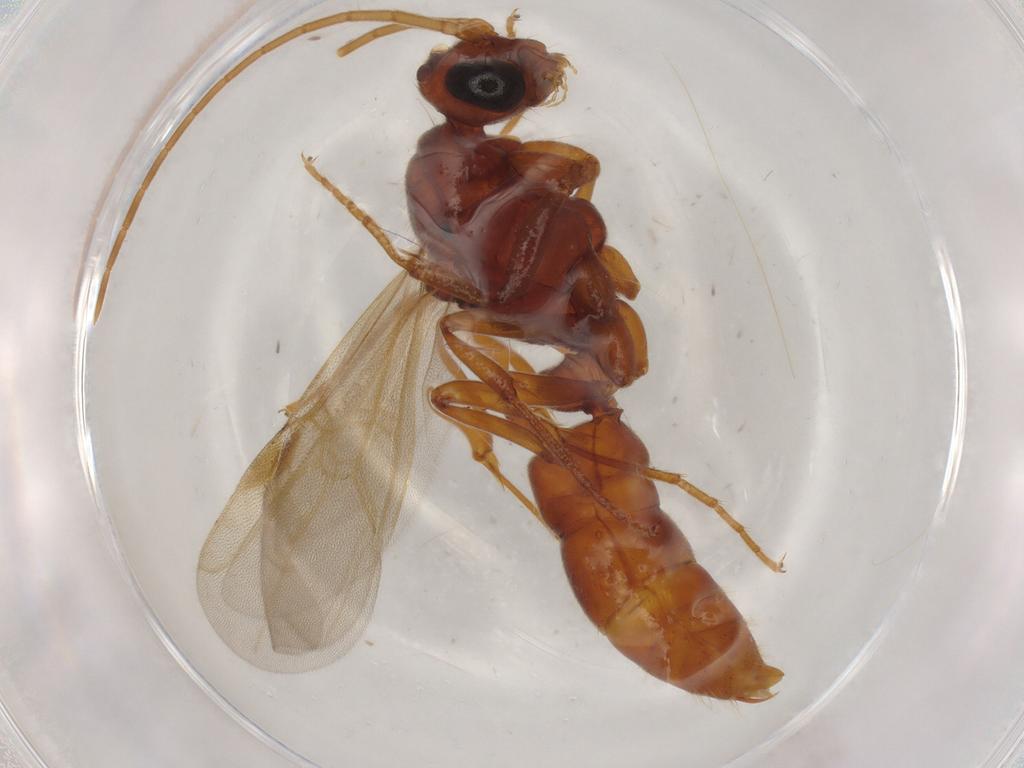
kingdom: Animalia
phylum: Arthropoda
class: Insecta
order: Hymenoptera
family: Formicidae
